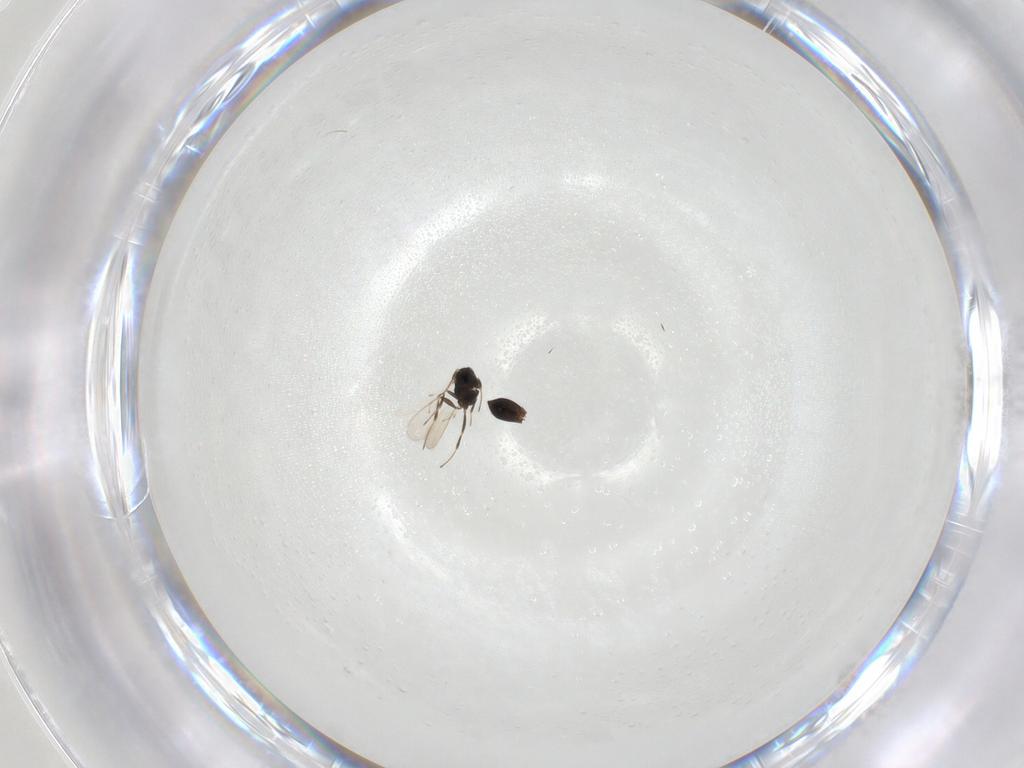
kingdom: Animalia
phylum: Arthropoda
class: Insecta
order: Hymenoptera
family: Scelionidae
